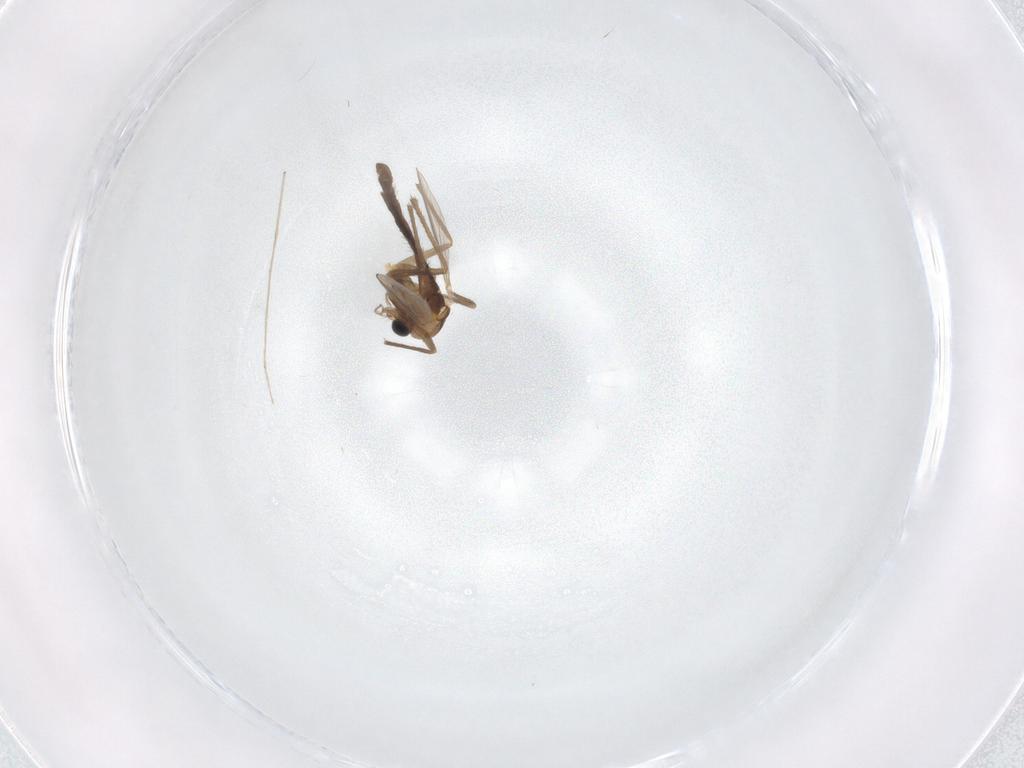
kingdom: Animalia
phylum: Arthropoda
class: Insecta
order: Diptera
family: Chironomidae
